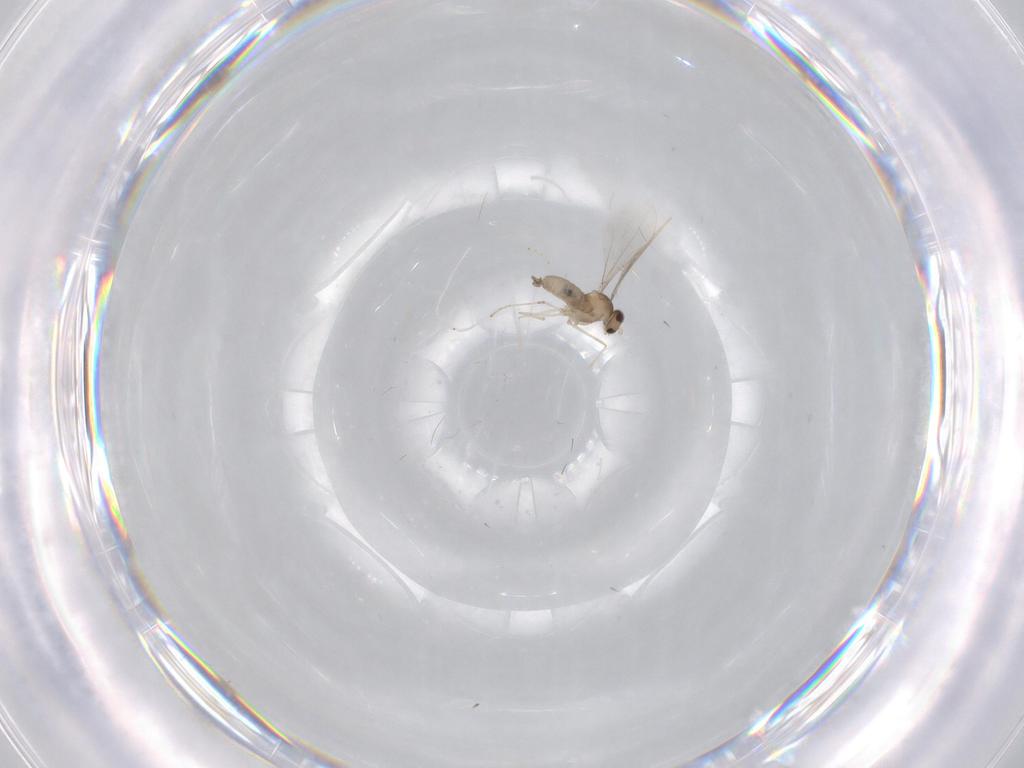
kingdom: Animalia
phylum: Arthropoda
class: Insecta
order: Diptera
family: Cecidomyiidae
